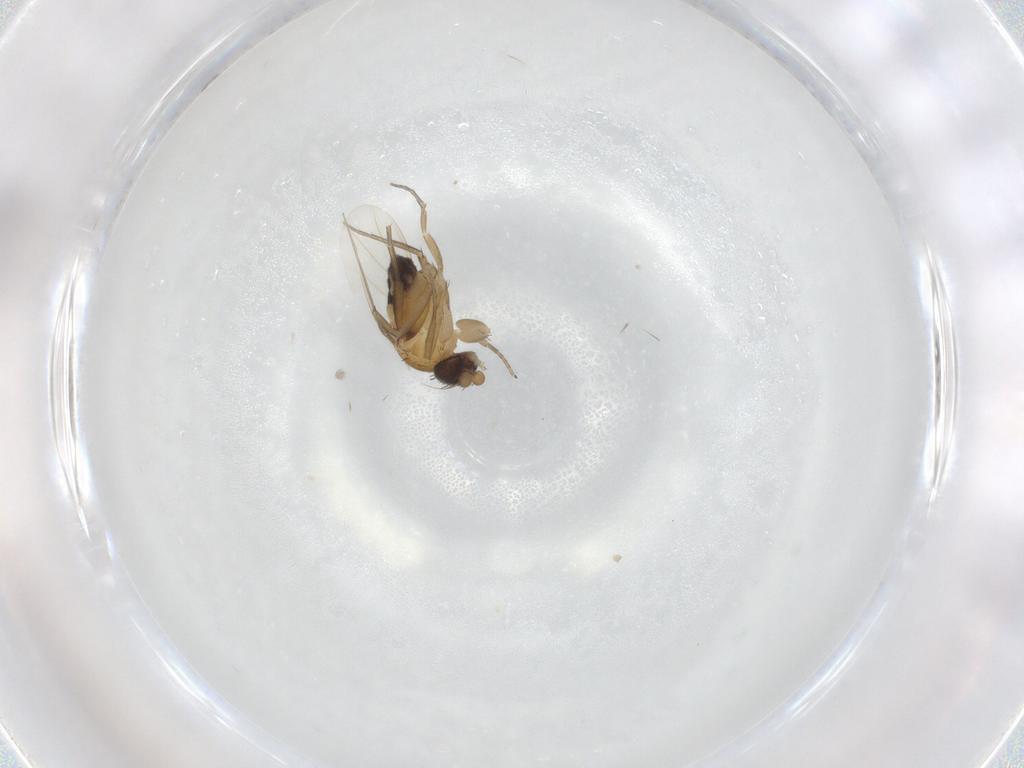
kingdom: Animalia
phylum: Arthropoda
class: Insecta
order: Diptera
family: Phoridae
